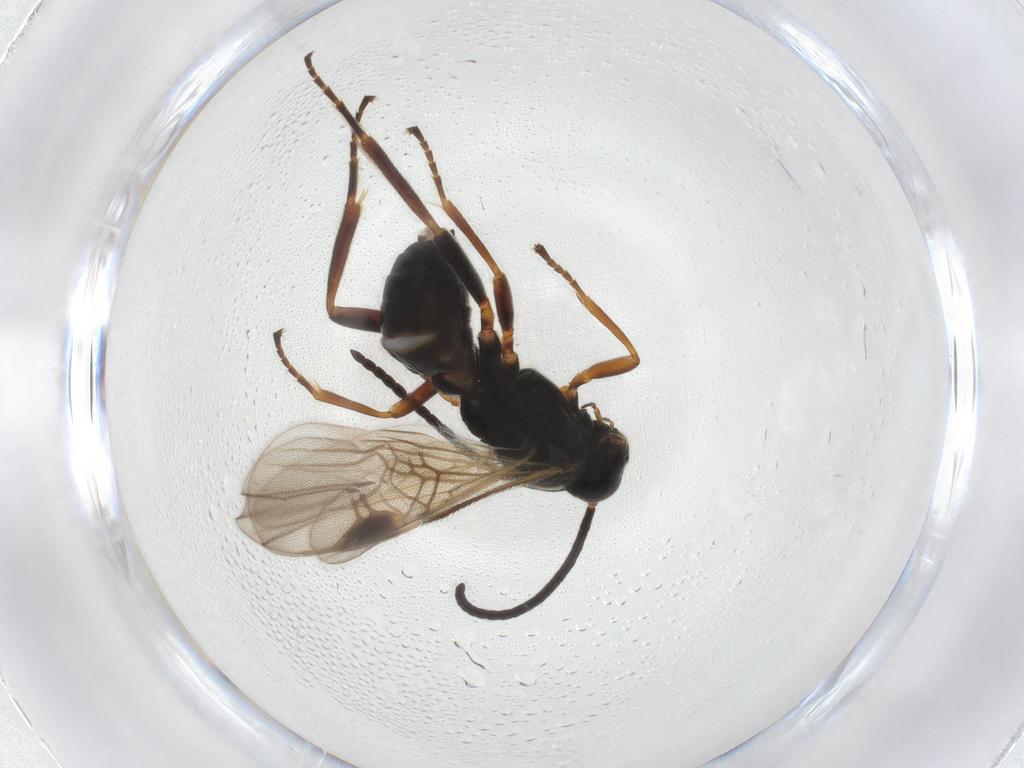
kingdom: Animalia
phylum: Arthropoda
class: Insecta
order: Hymenoptera
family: Braconidae
